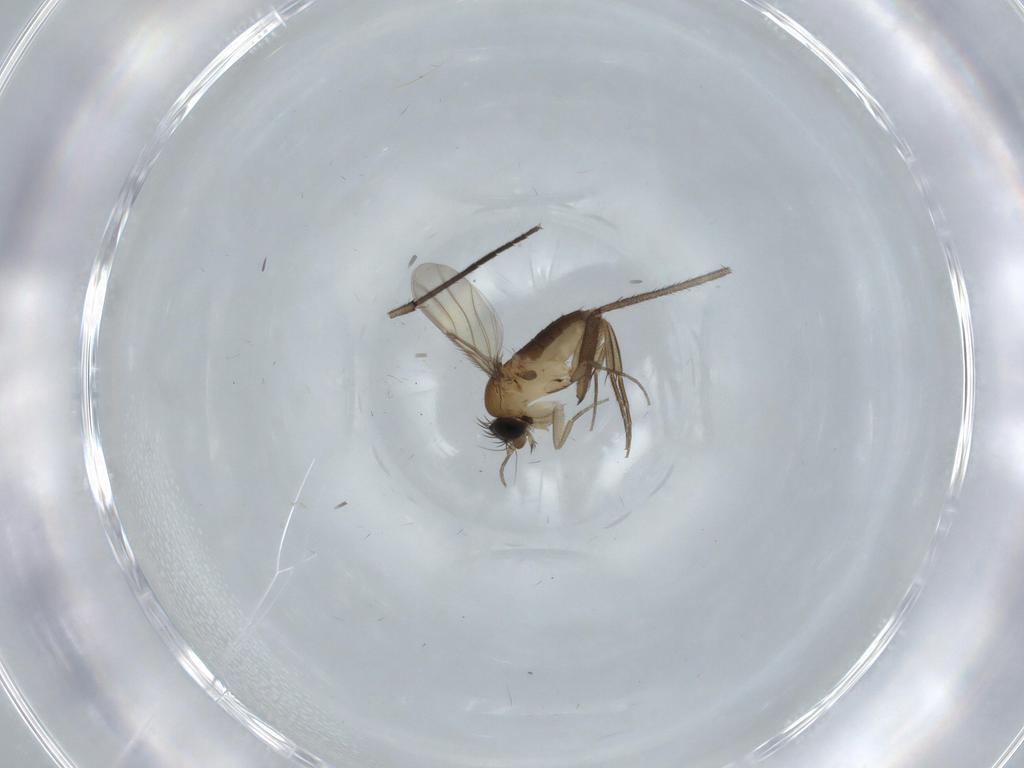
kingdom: Animalia
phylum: Arthropoda
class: Insecta
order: Diptera
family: Phoridae
